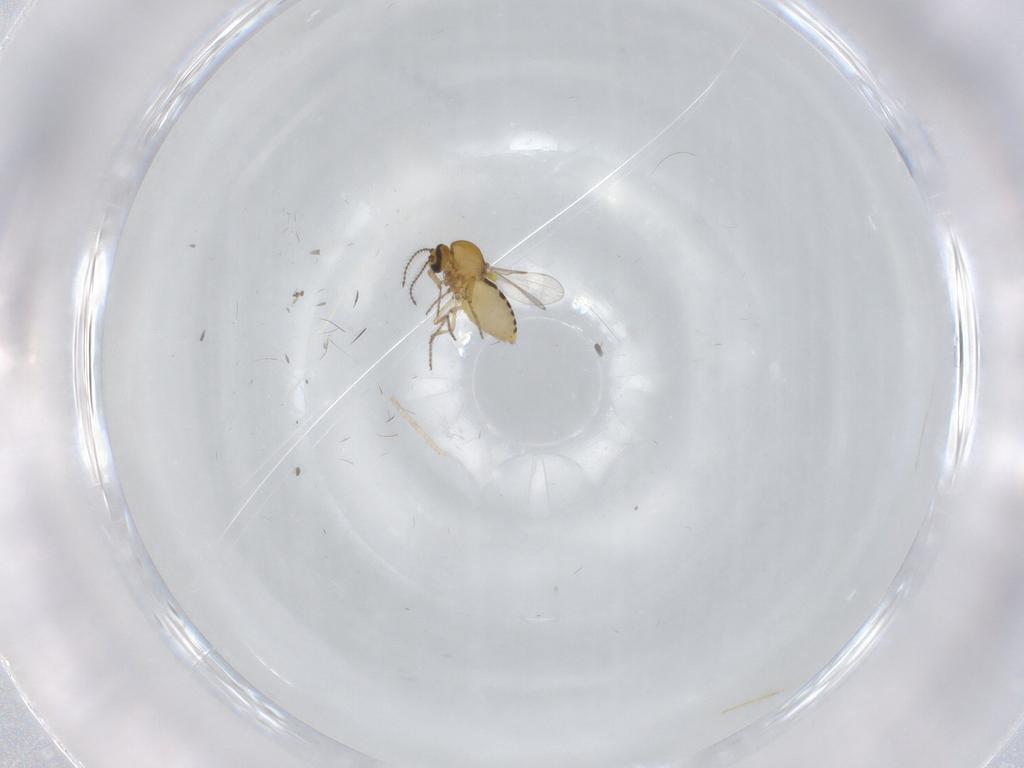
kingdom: Animalia
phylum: Arthropoda
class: Insecta
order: Diptera
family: Ceratopogonidae
